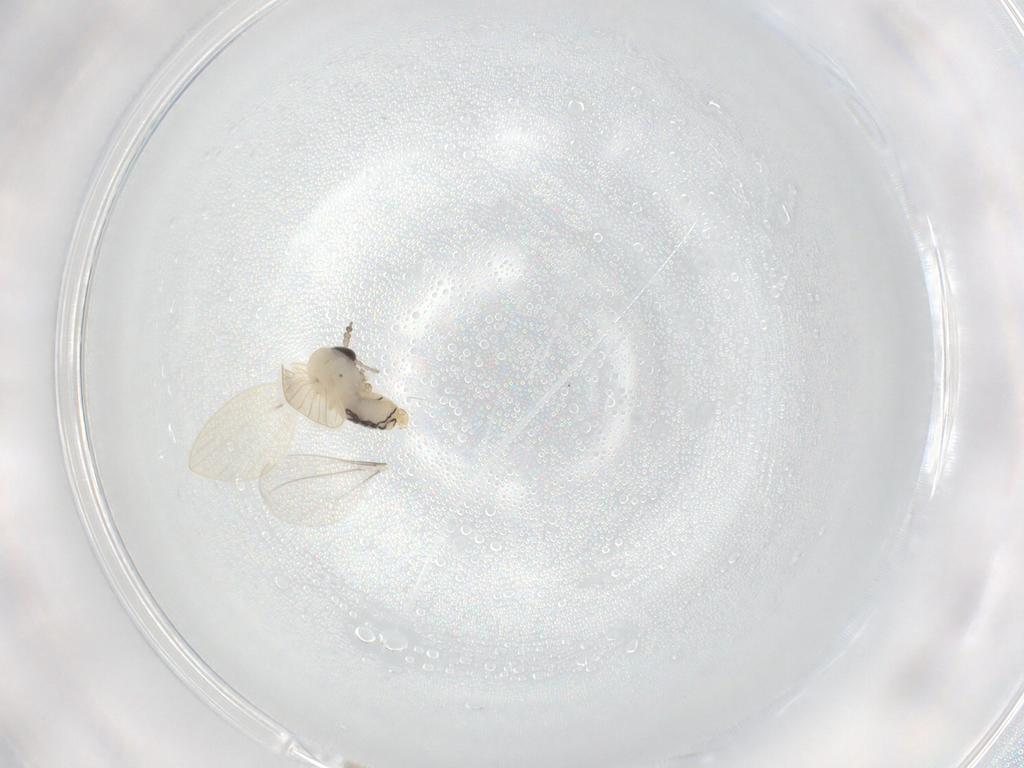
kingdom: Animalia
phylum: Arthropoda
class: Insecta
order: Diptera
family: Psychodidae
